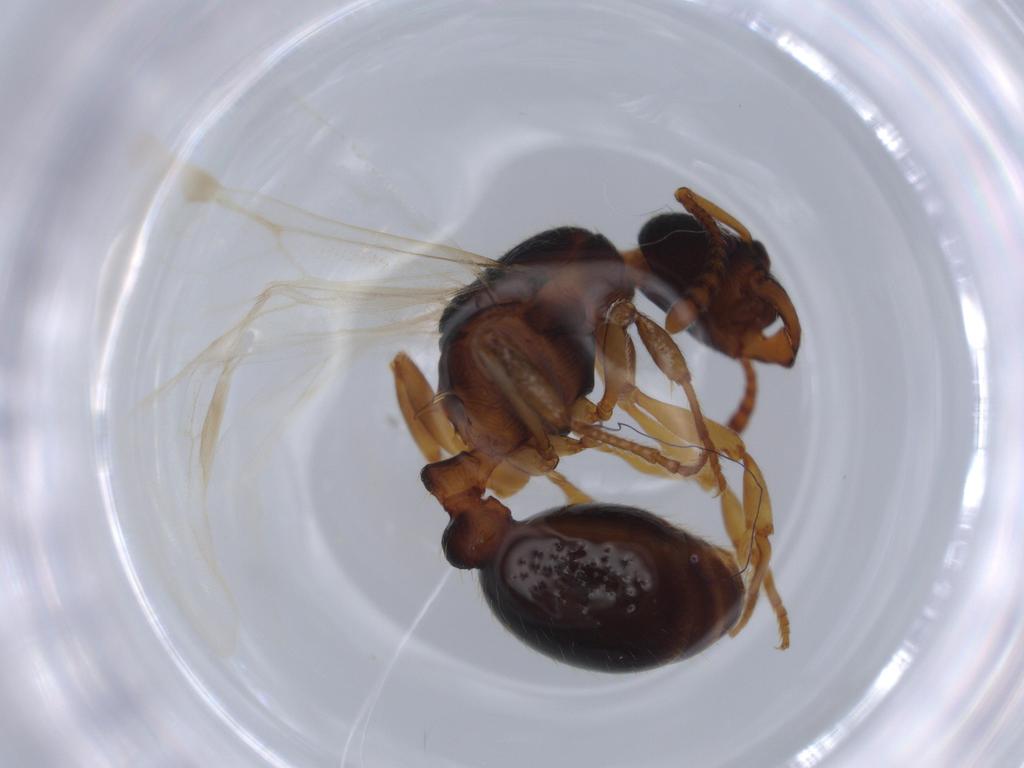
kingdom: Animalia
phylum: Arthropoda
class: Insecta
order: Hymenoptera
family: Formicidae
